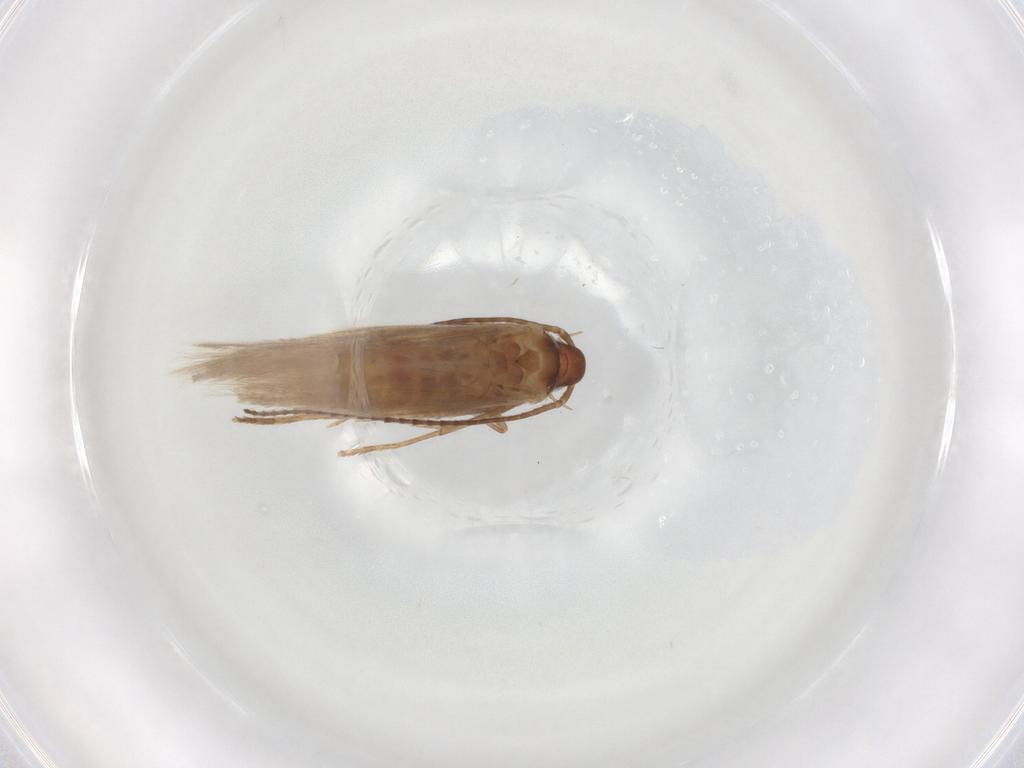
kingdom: Animalia
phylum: Arthropoda
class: Insecta
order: Lepidoptera
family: Coleophoridae
